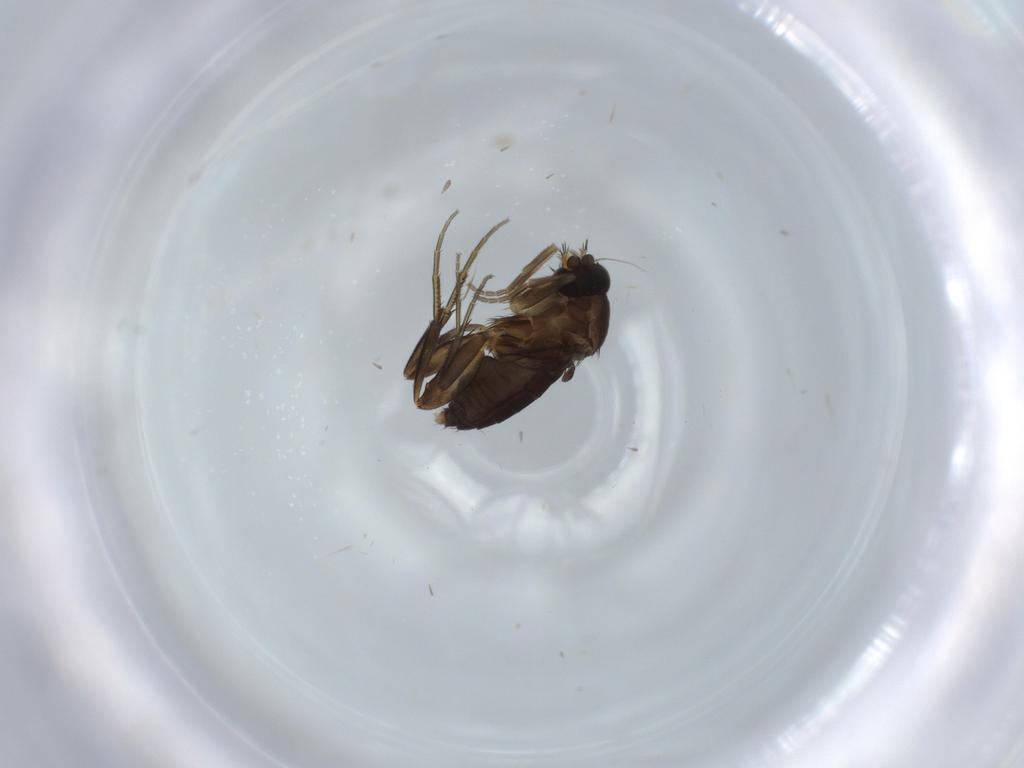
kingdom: Animalia
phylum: Arthropoda
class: Insecta
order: Diptera
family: Phoridae
